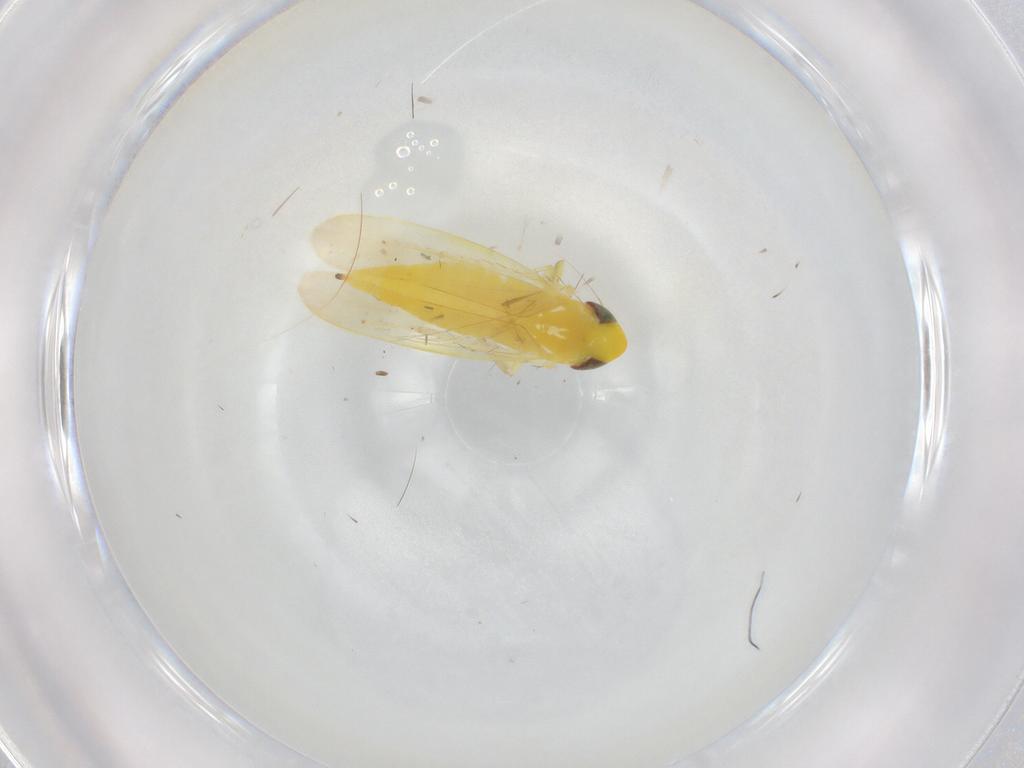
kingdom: Animalia
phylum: Arthropoda
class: Insecta
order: Hemiptera
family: Cicadellidae
